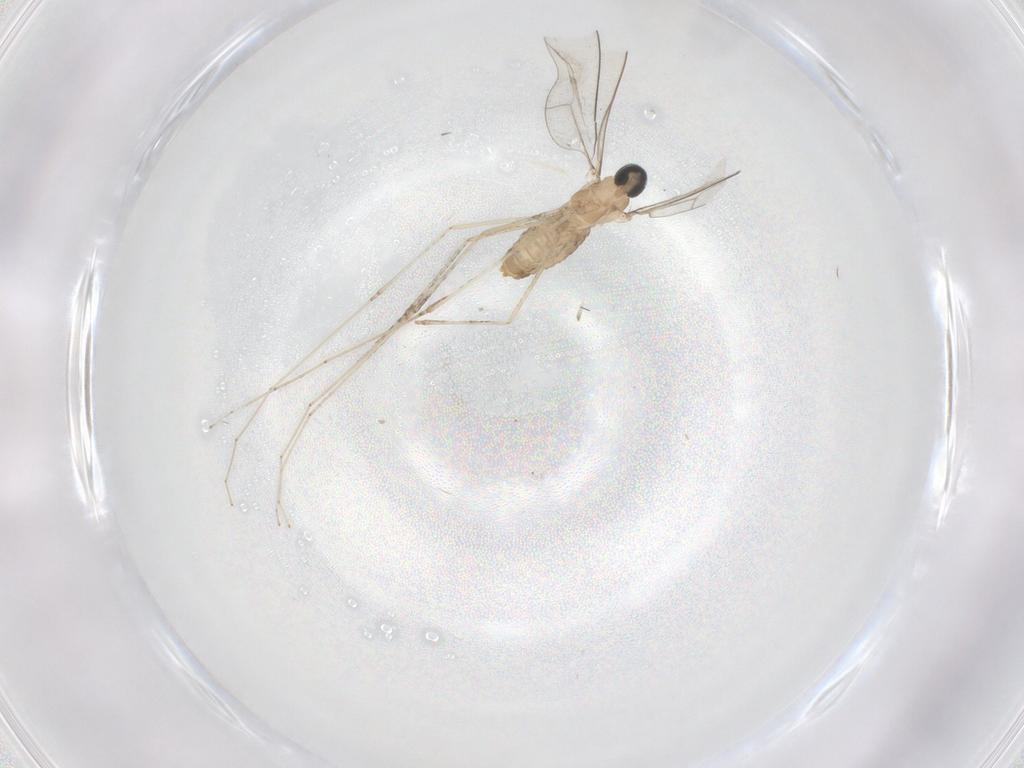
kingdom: Animalia
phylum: Arthropoda
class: Insecta
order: Diptera
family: Cecidomyiidae
